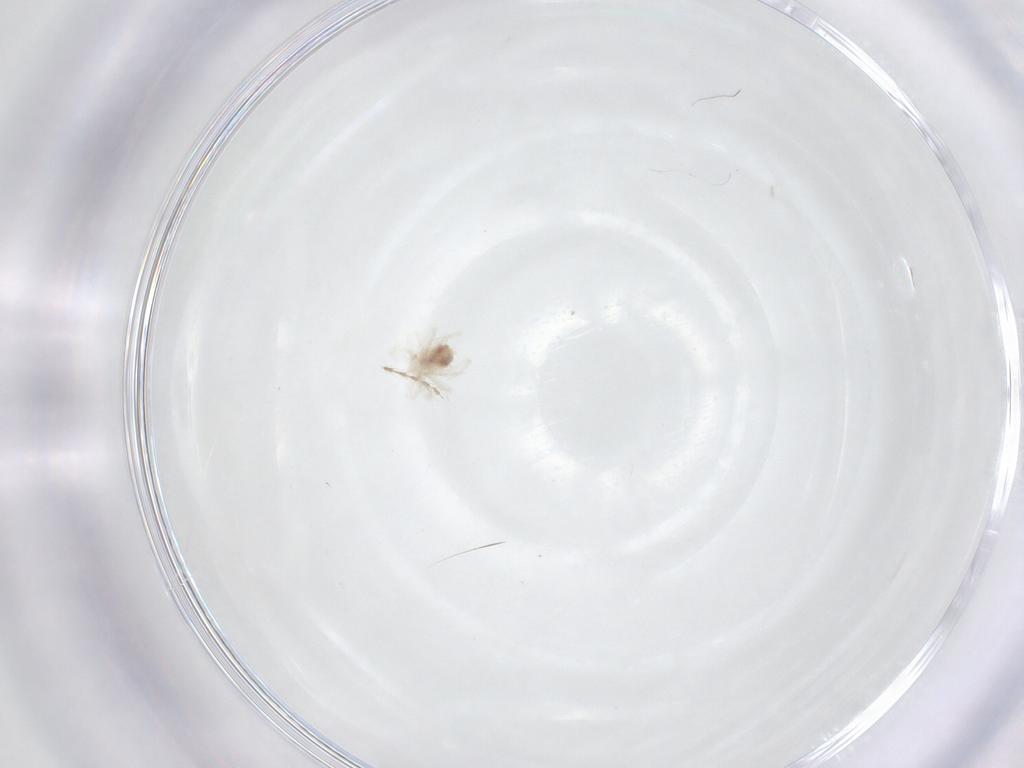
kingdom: Animalia
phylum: Arthropoda
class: Arachnida
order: Trombidiformes
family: Anystidae
